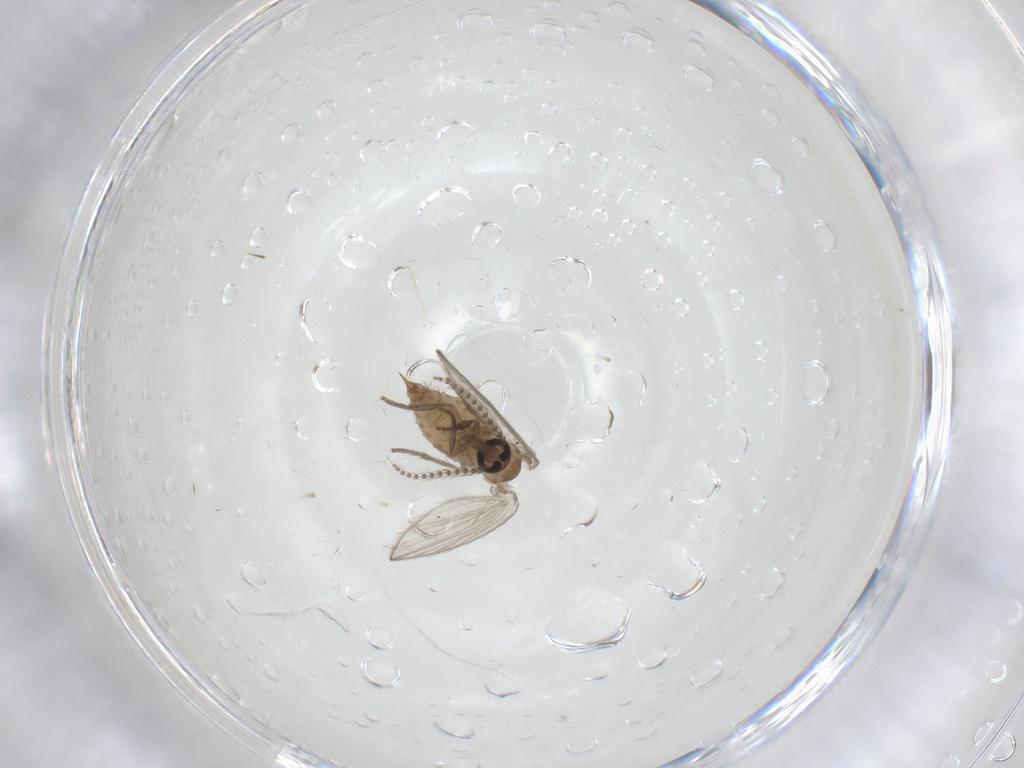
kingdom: Animalia
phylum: Arthropoda
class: Insecta
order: Diptera
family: Psychodidae
